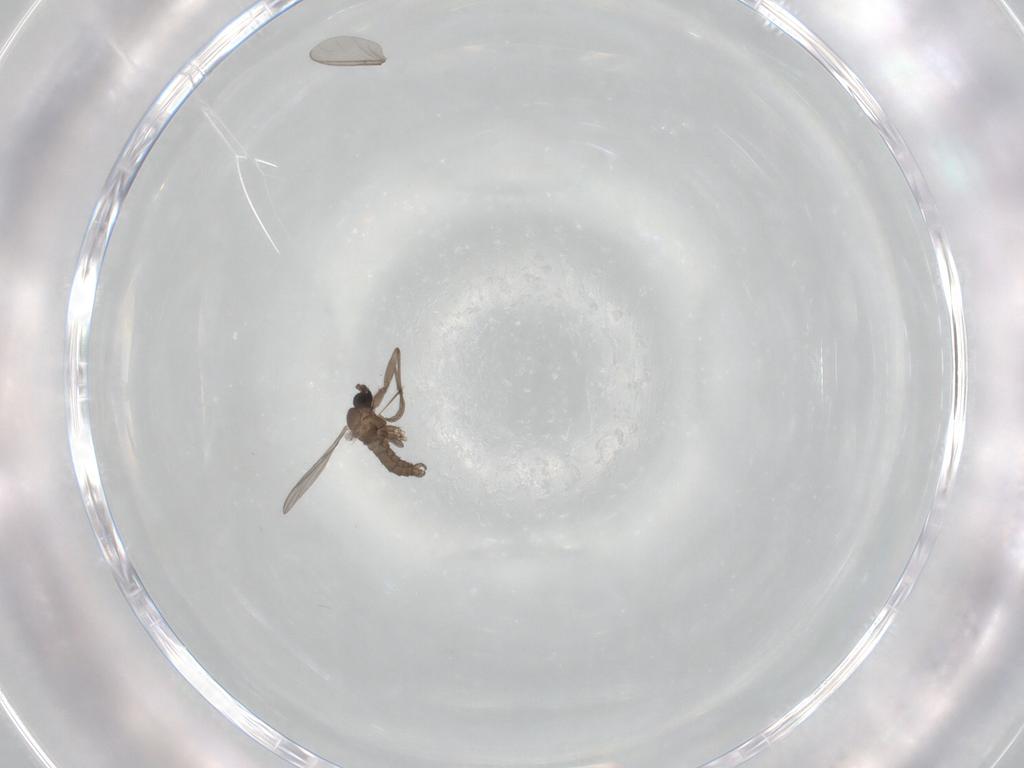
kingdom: Animalia
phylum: Arthropoda
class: Insecta
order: Diptera
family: Sciaridae
